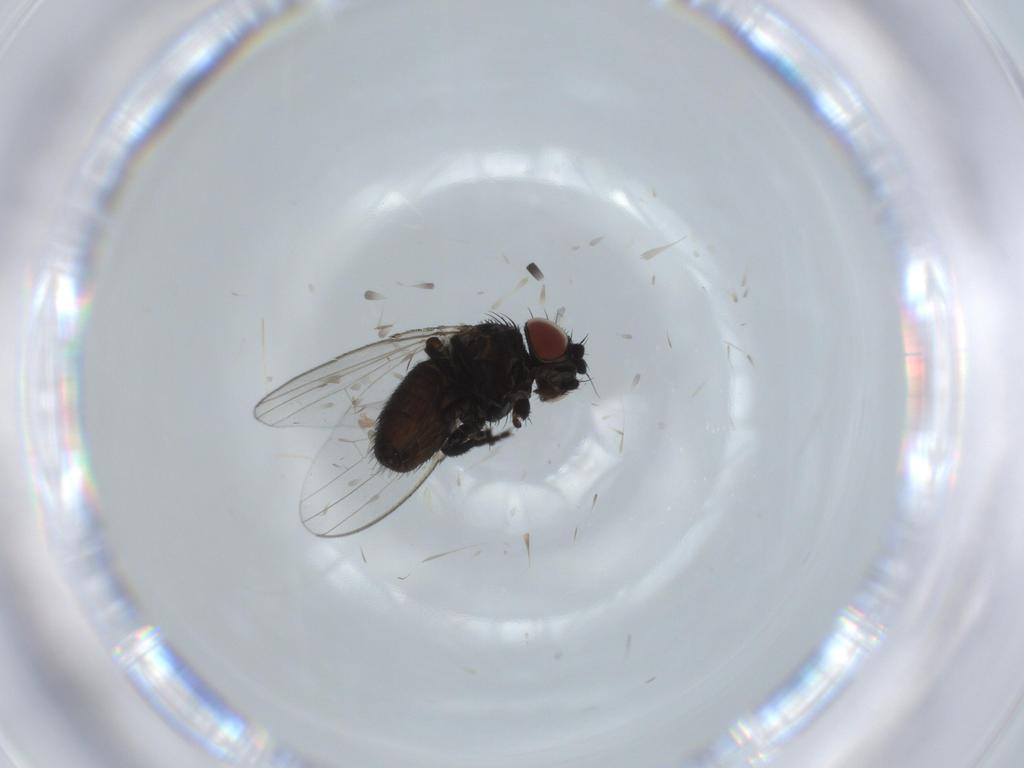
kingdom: Animalia
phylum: Arthropoda
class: Insecta
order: Diptera
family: Milichiidae
